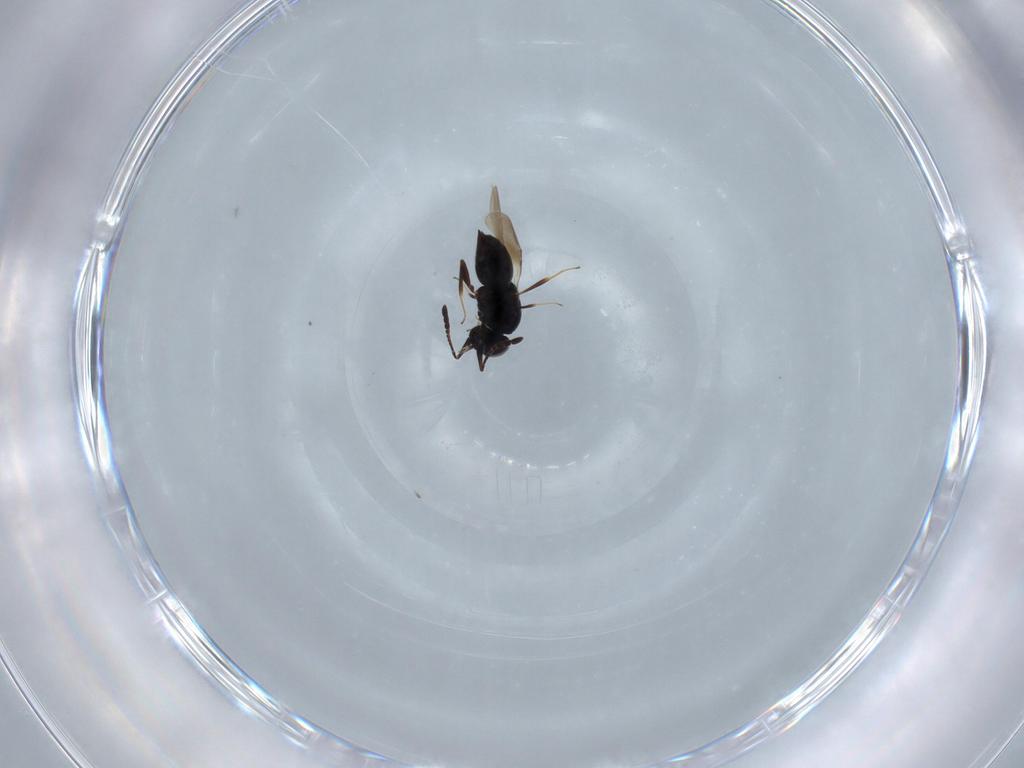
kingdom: Animalia
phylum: Arthropoda
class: Insecta
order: Hymenoptera
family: Ceraphronidae
